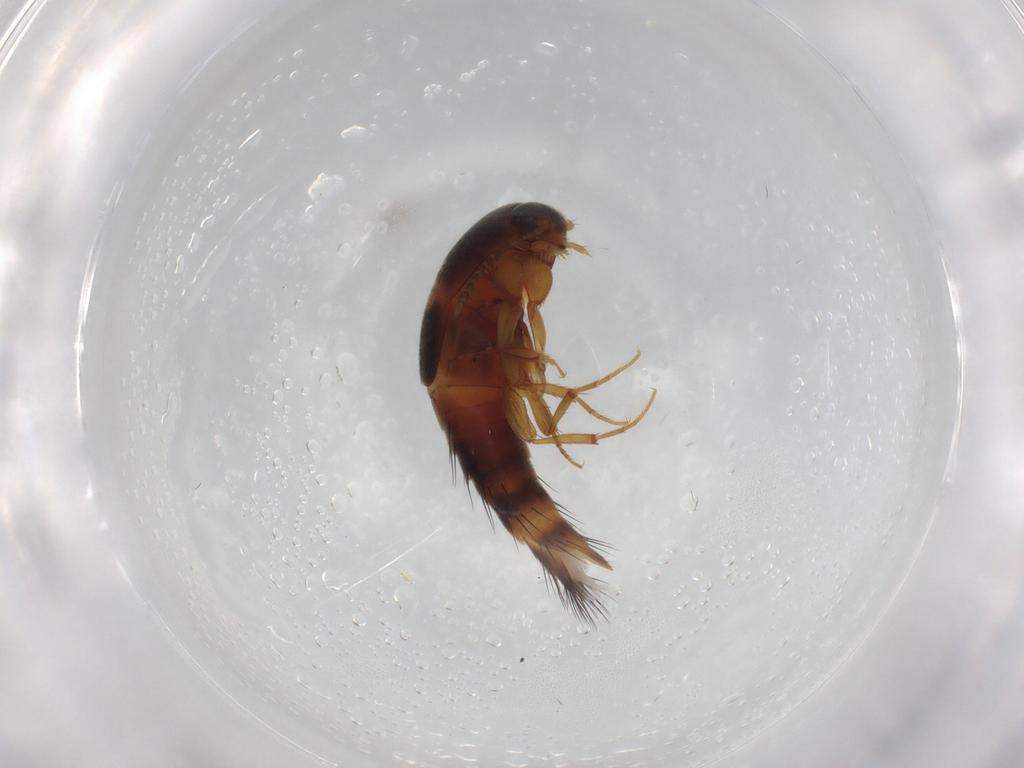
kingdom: Animalia
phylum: Arthropoda
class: Insecta
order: Coleoptera
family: Staphylinidae
